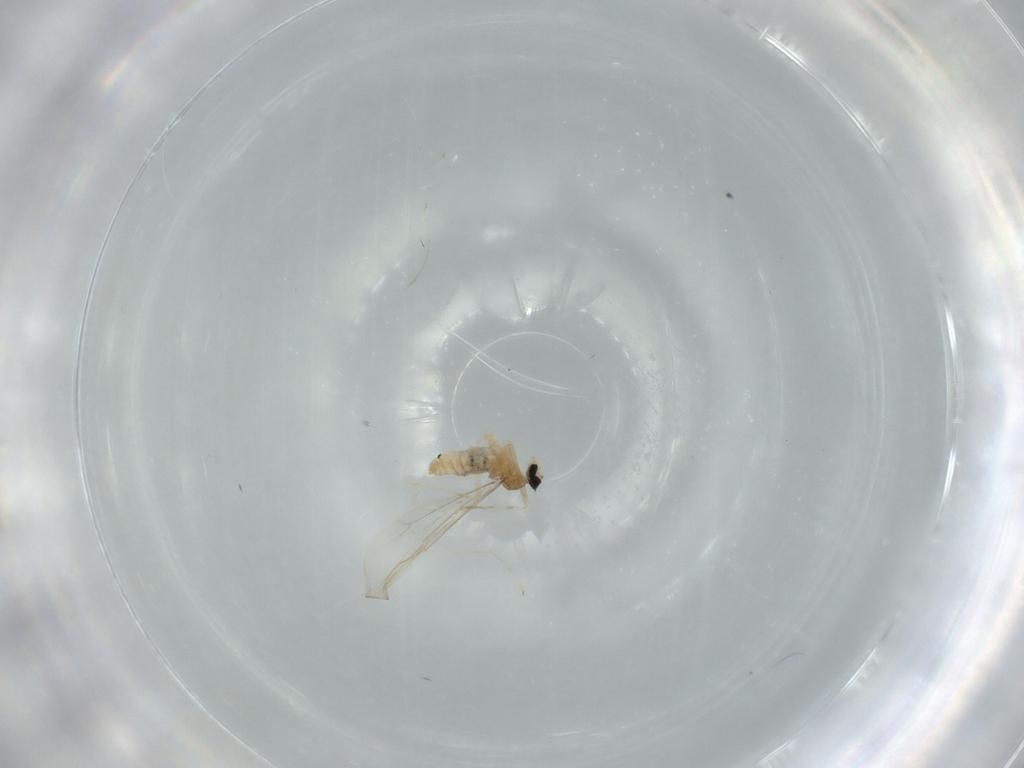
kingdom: Animalia
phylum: Arthropoda
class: Insecta
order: Diptera
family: Cecidomyiidae
